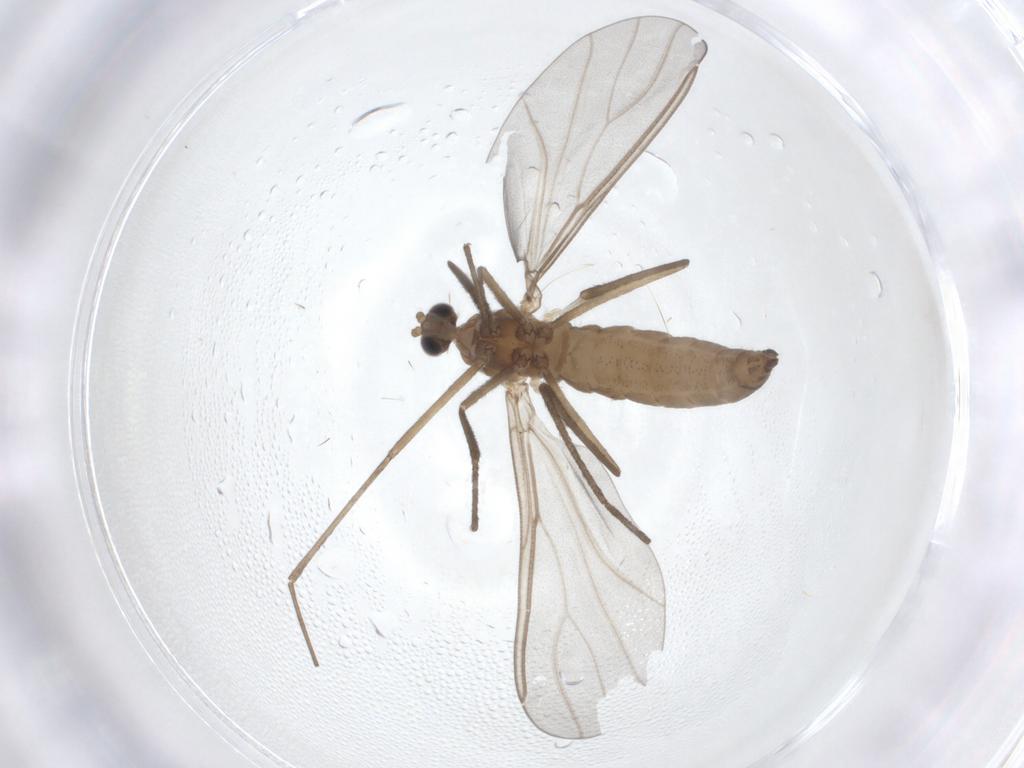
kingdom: Animalia
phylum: Arthropoda
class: Insecta
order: Diptera
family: Cecidomyiidae
